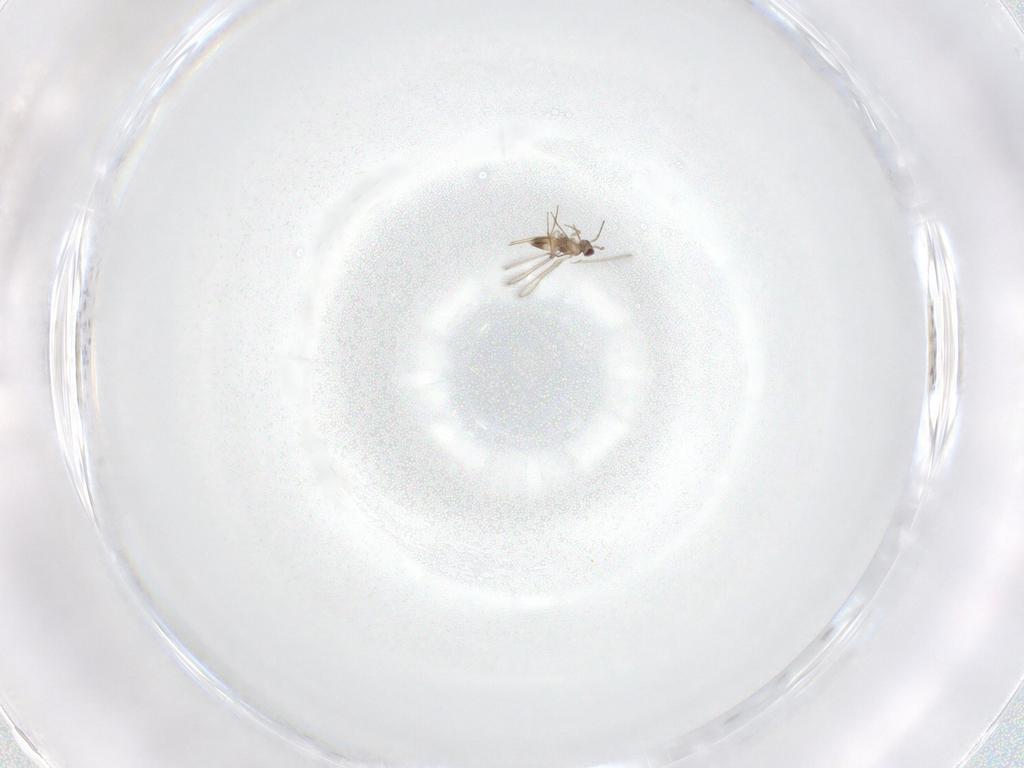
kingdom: Animalia
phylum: Arthropoda
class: Insecta
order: Hymenoptera
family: Mymaridae
